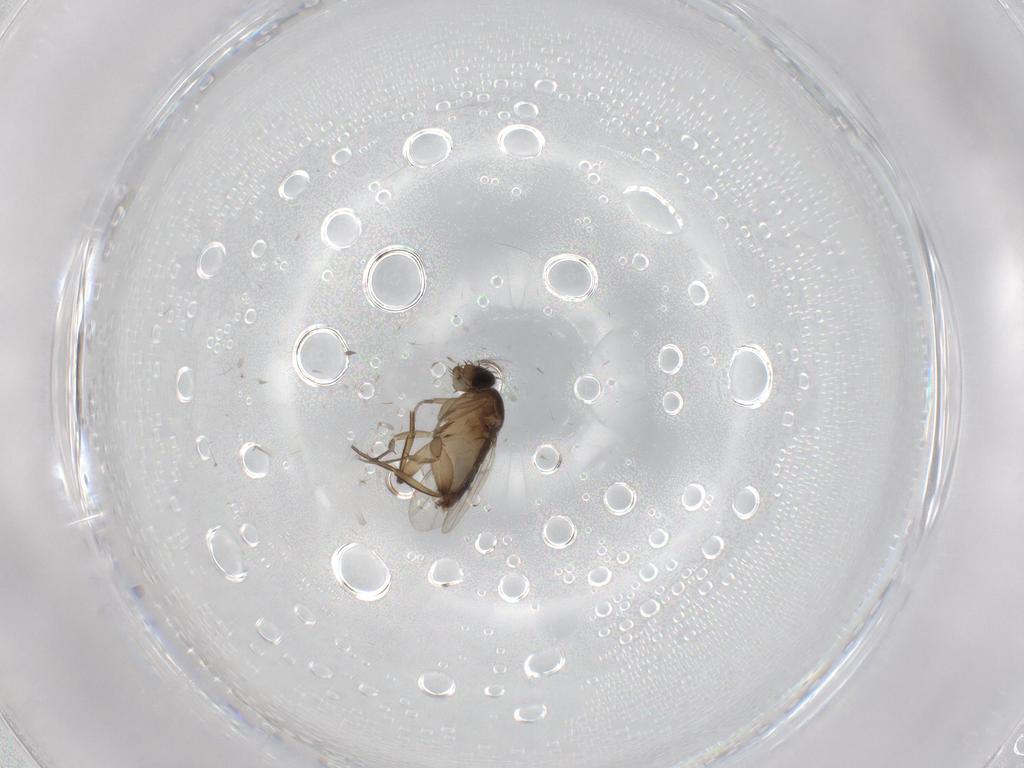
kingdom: Animalia
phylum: Arthropoda
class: Insecta
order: Diptera
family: Phoridae
